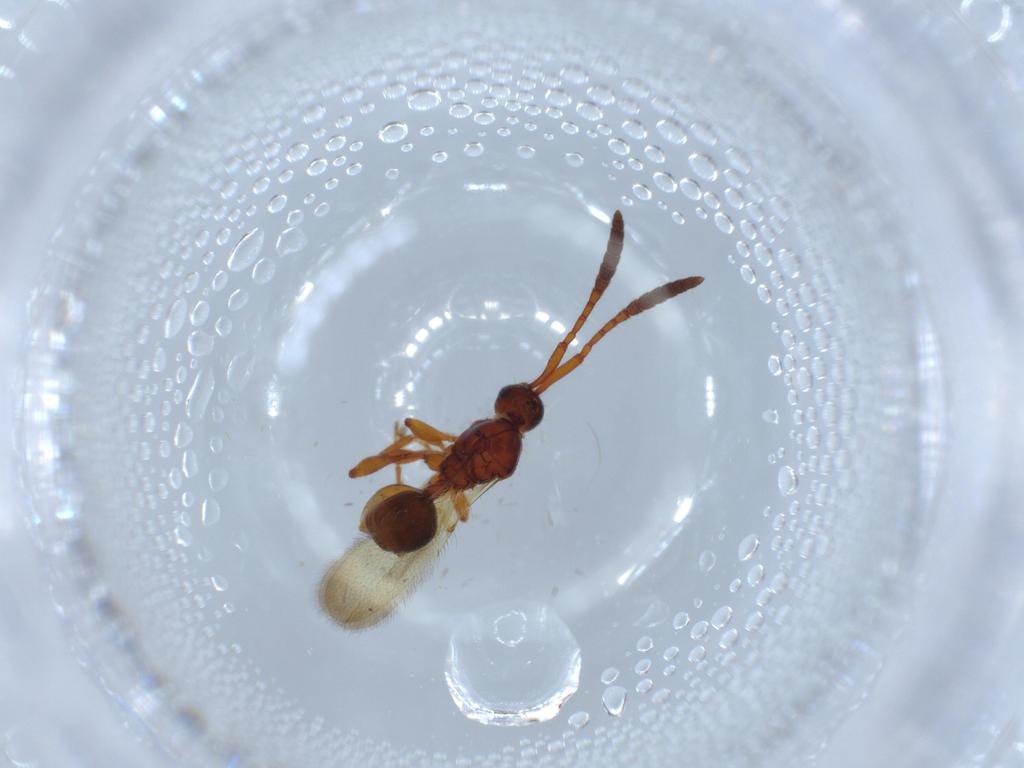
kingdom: Animalia
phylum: Arthropoda
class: Insecta
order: Hymenoptera
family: Diapriidae
